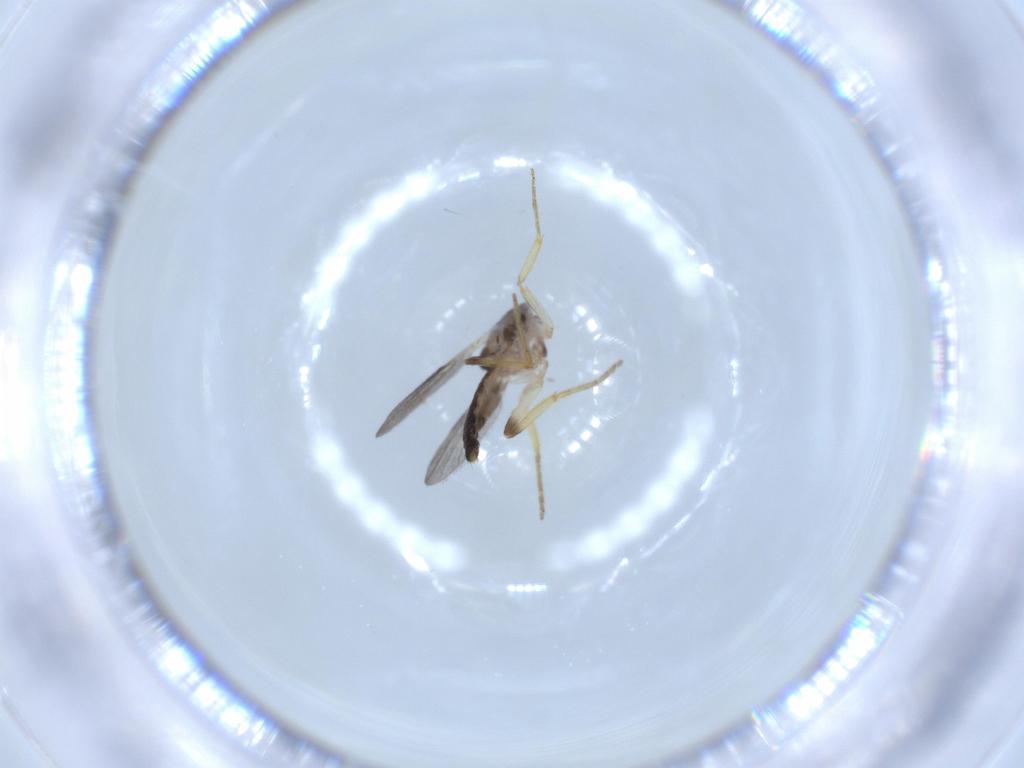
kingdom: Animalia
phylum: Arthropoda
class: Insecta
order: Diptera
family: Ceratopogonidae
